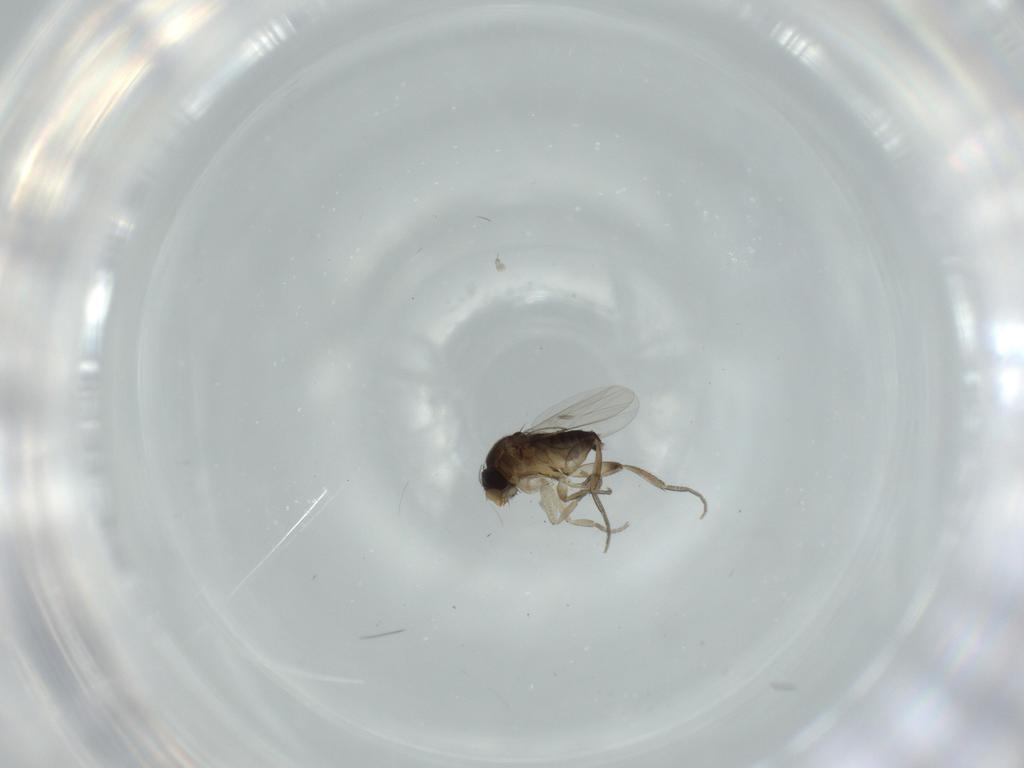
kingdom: Animalia
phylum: Arthropoda
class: Insecta
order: Diptera
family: Phoridae
